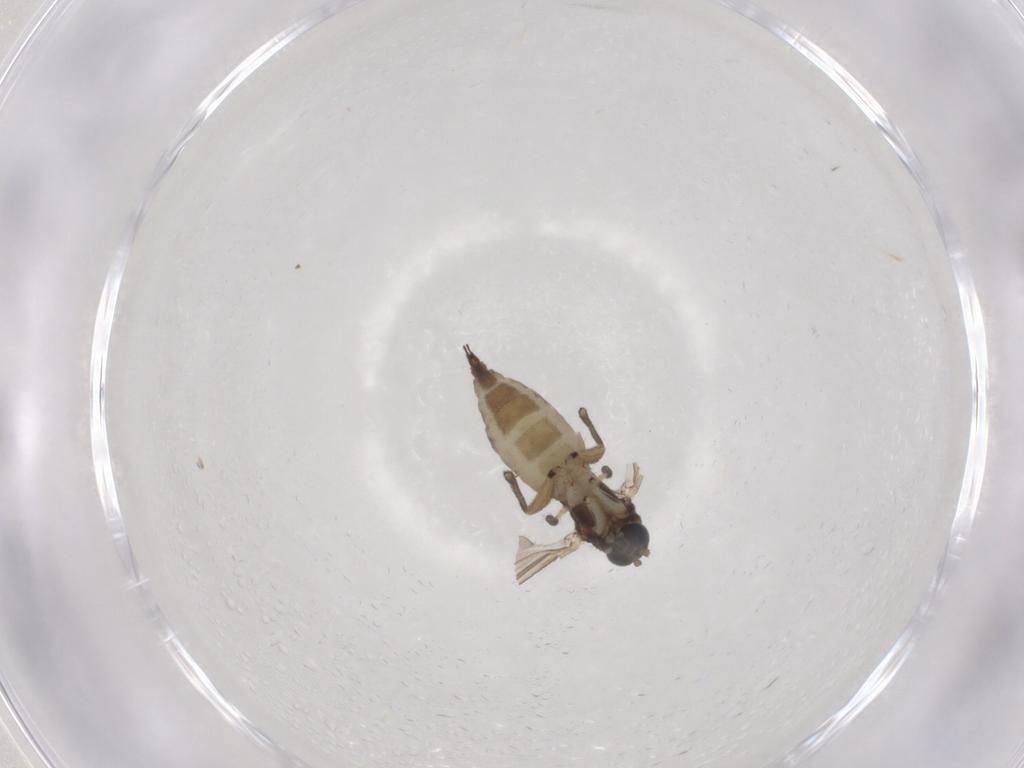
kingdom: Animalia
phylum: Arthropoda
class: Insecta
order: Diptera
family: Sciaridae
